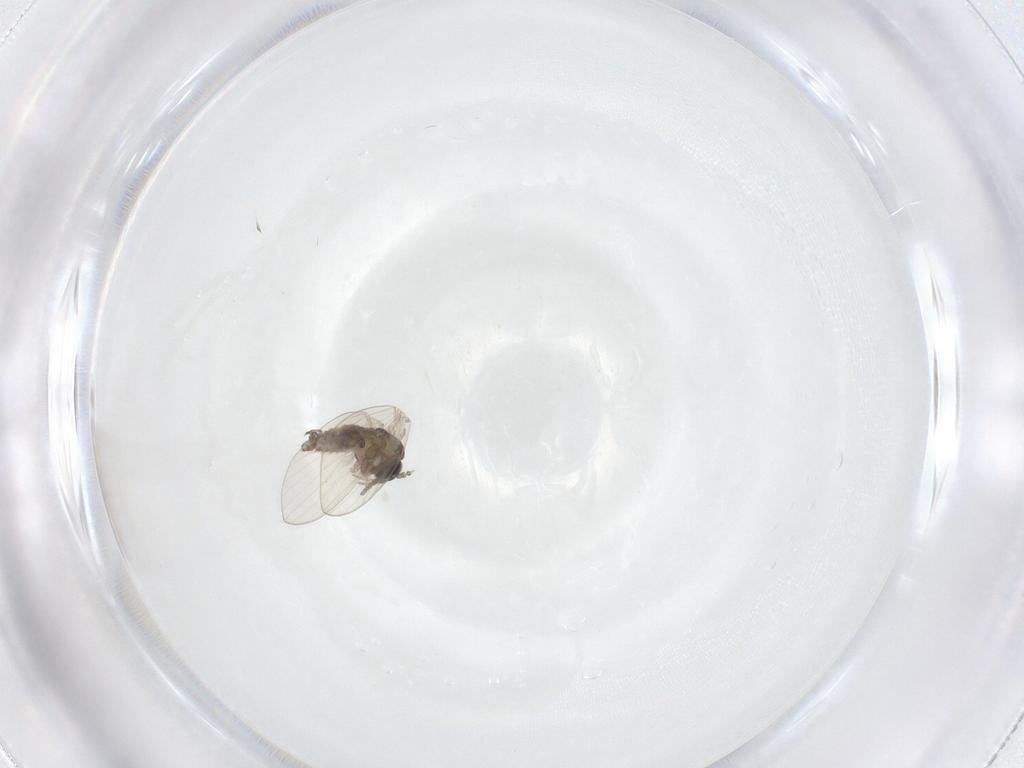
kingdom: Animalia
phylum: Arthropoda
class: Insecta
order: Diptera
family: Psychodidae
